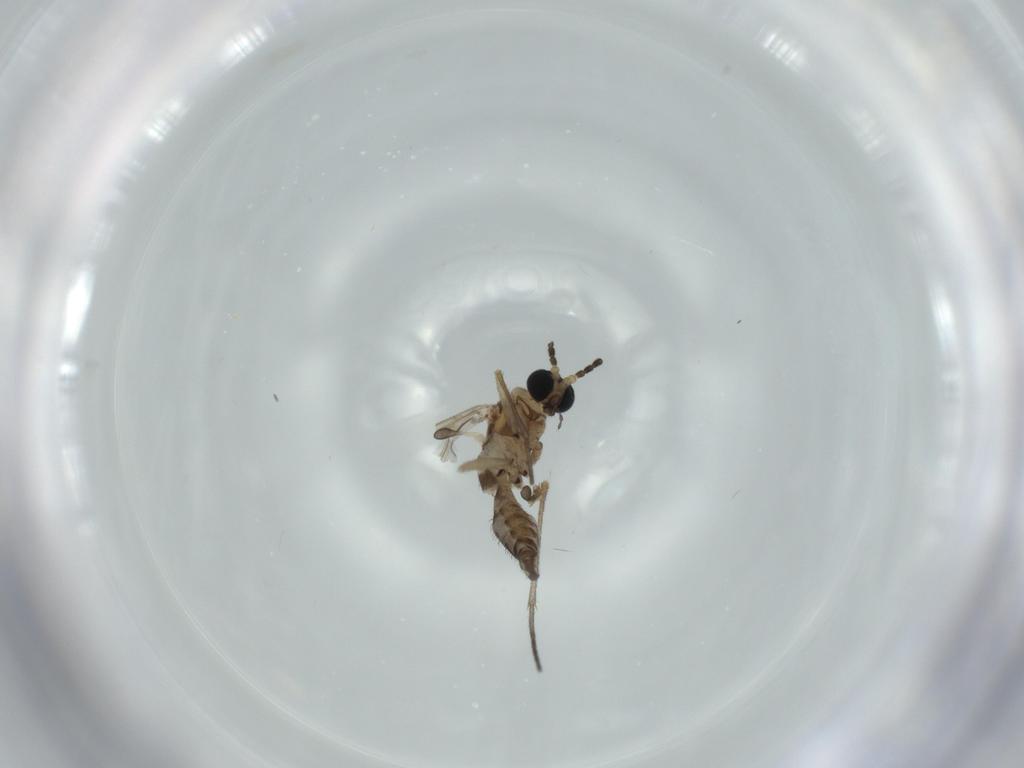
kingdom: Animalia
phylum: Arthropoda
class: Insecta
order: Diptera
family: Sciaridae
